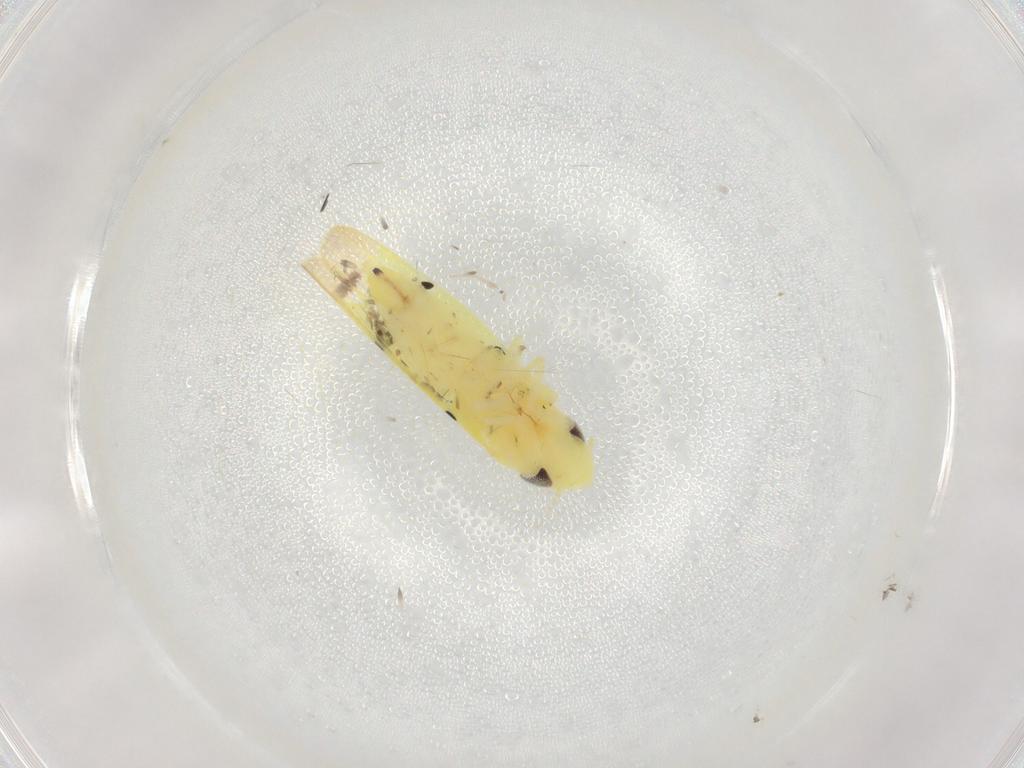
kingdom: Animalia
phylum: Arthropoda
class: Insecta
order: Hemiptera
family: Cicadellidae
